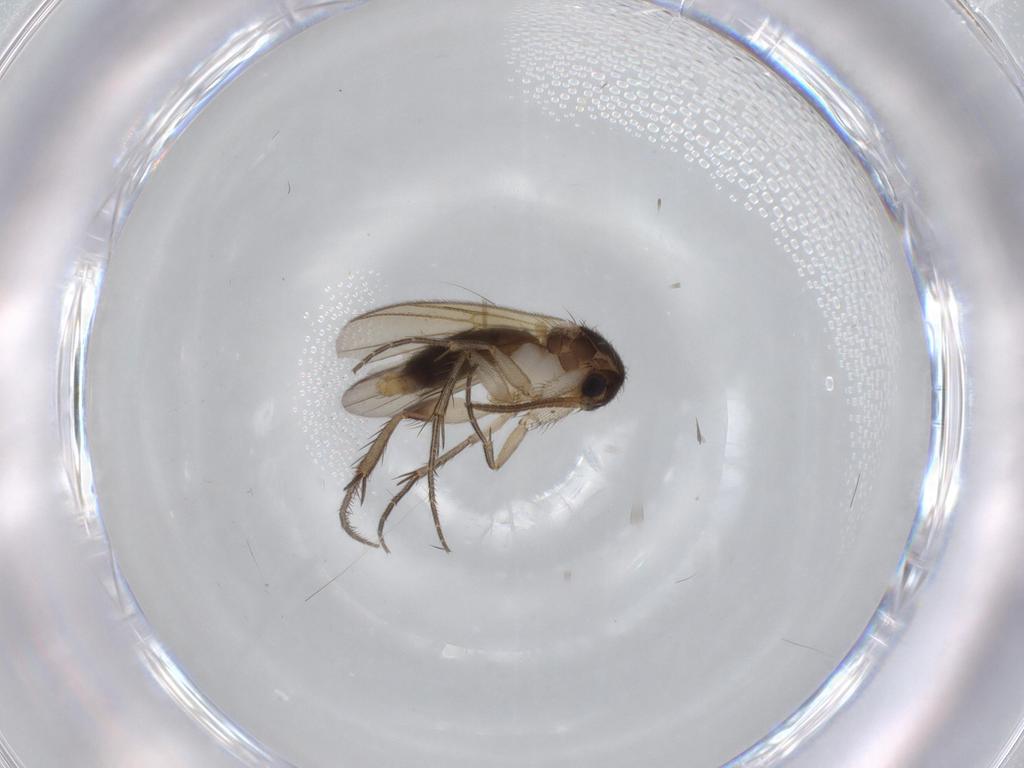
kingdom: Animalia
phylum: Arthropoda
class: Insecta
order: Diptera
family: Mycetophilidae
